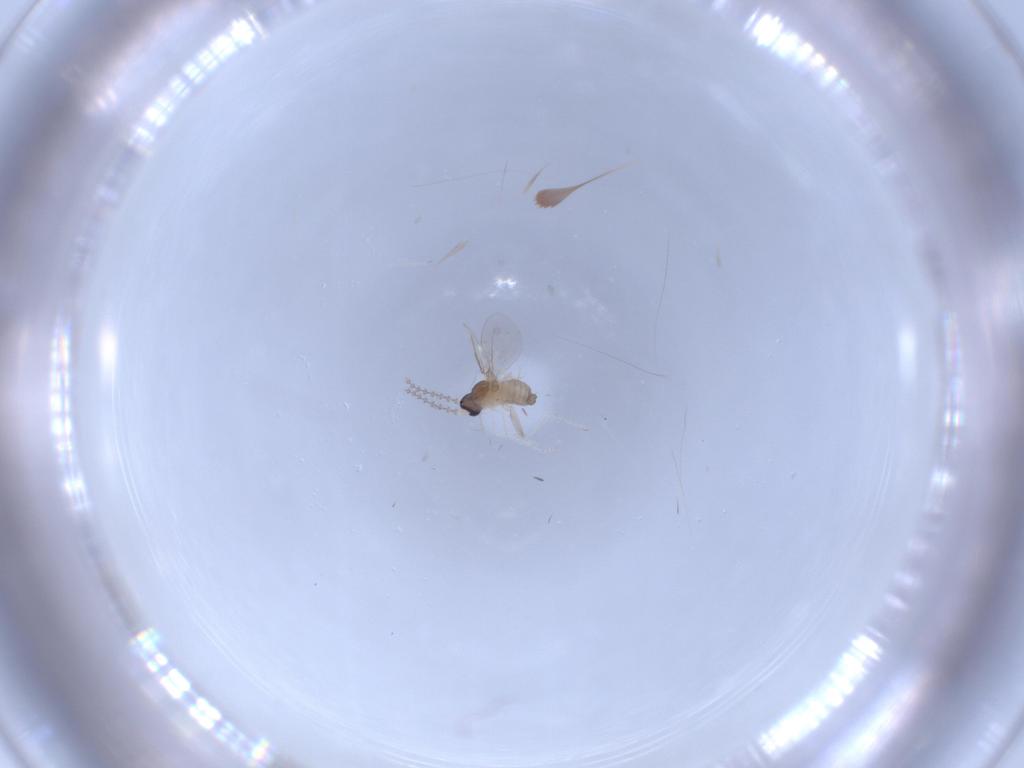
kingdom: Animalia
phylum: Arthropoda
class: Insecta
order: Diptera
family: Cecidomyiidae
